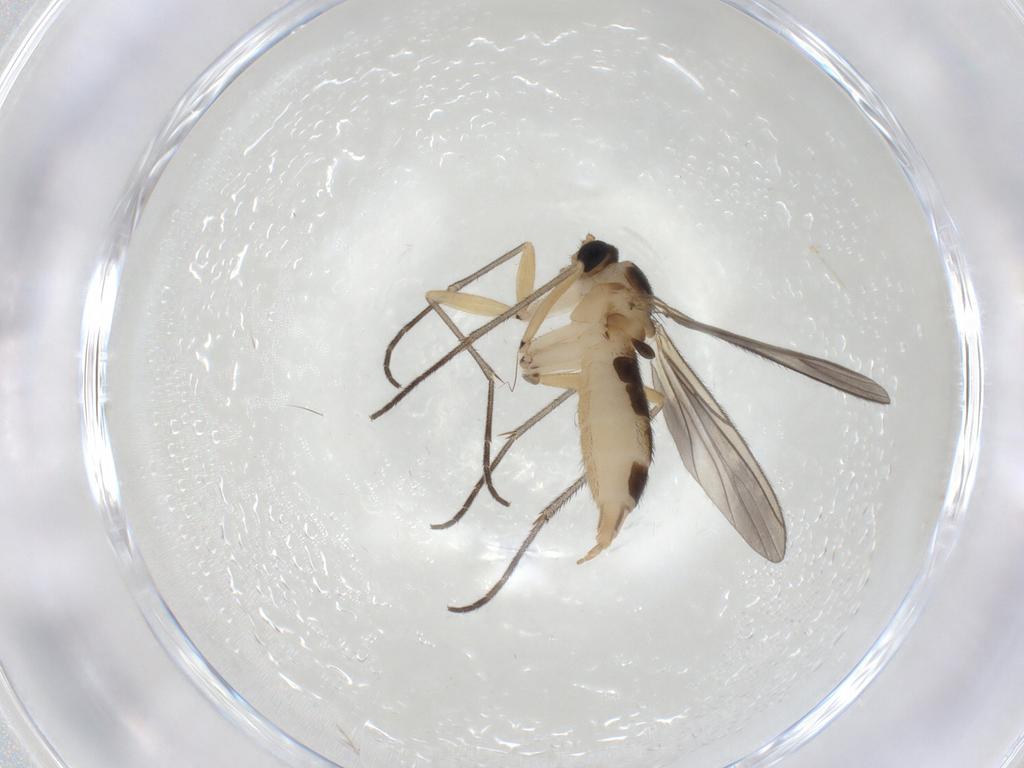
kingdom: Animalia
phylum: Arthropoda
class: Insecta
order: Diptera
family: Sciaridae
